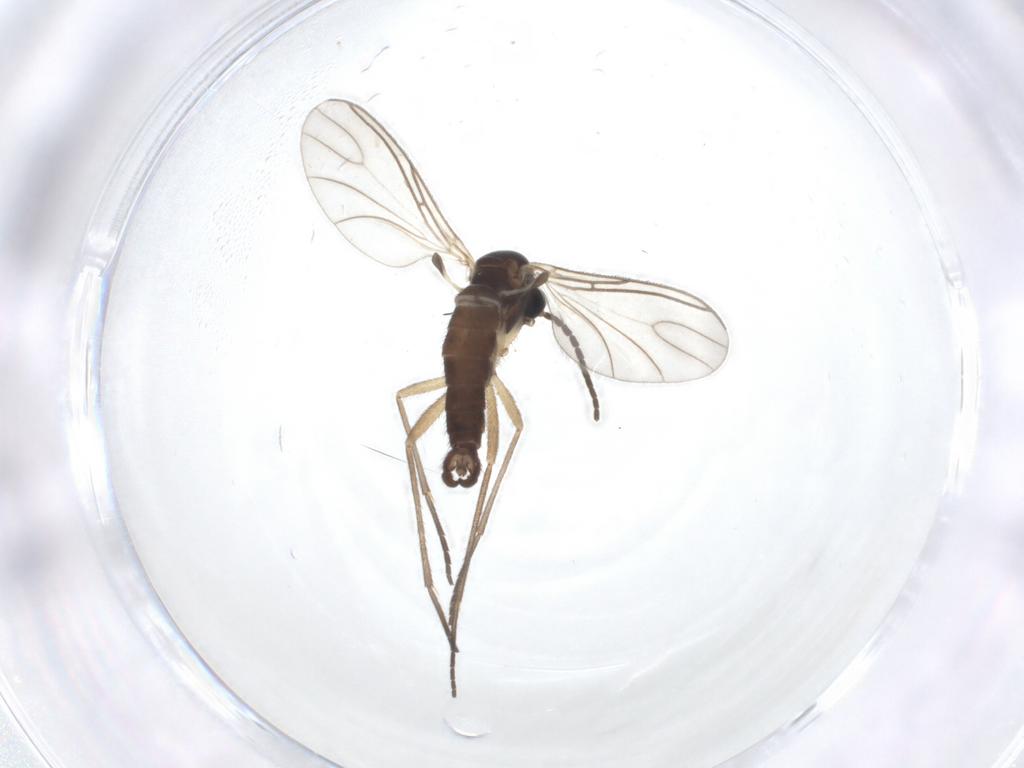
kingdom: Animalia
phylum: Arthropoda
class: Insecta
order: Diptera
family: Sciaridae
